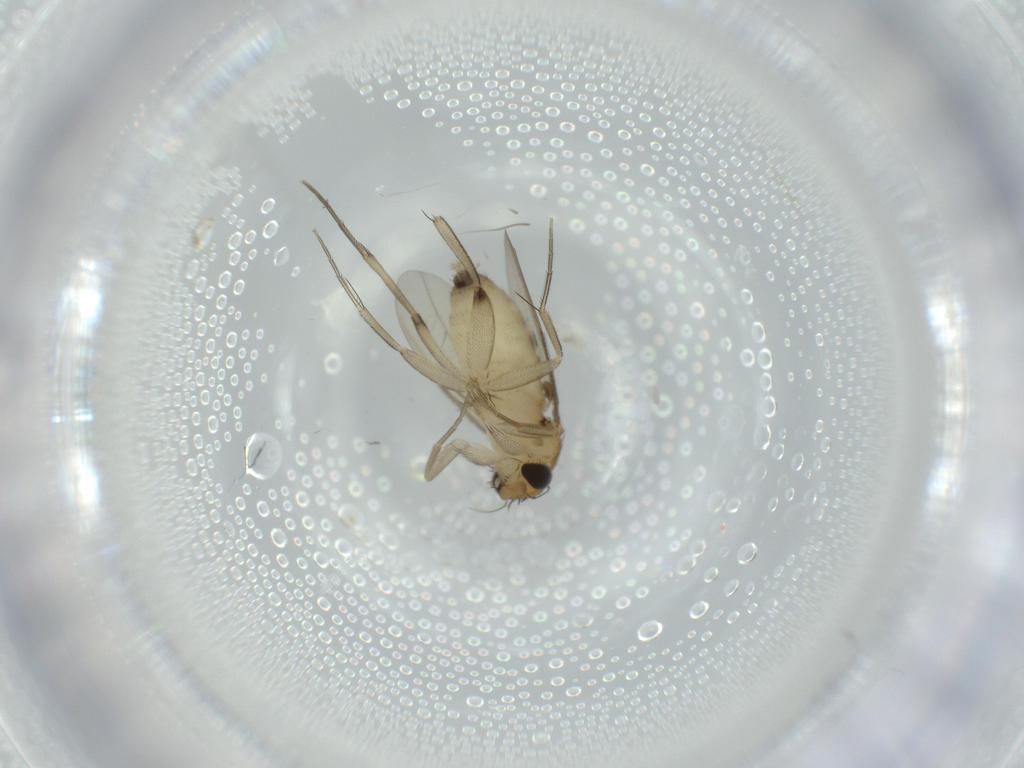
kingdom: Animalia
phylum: Arthropoda
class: Insecta
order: Diptera
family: Phoridae
